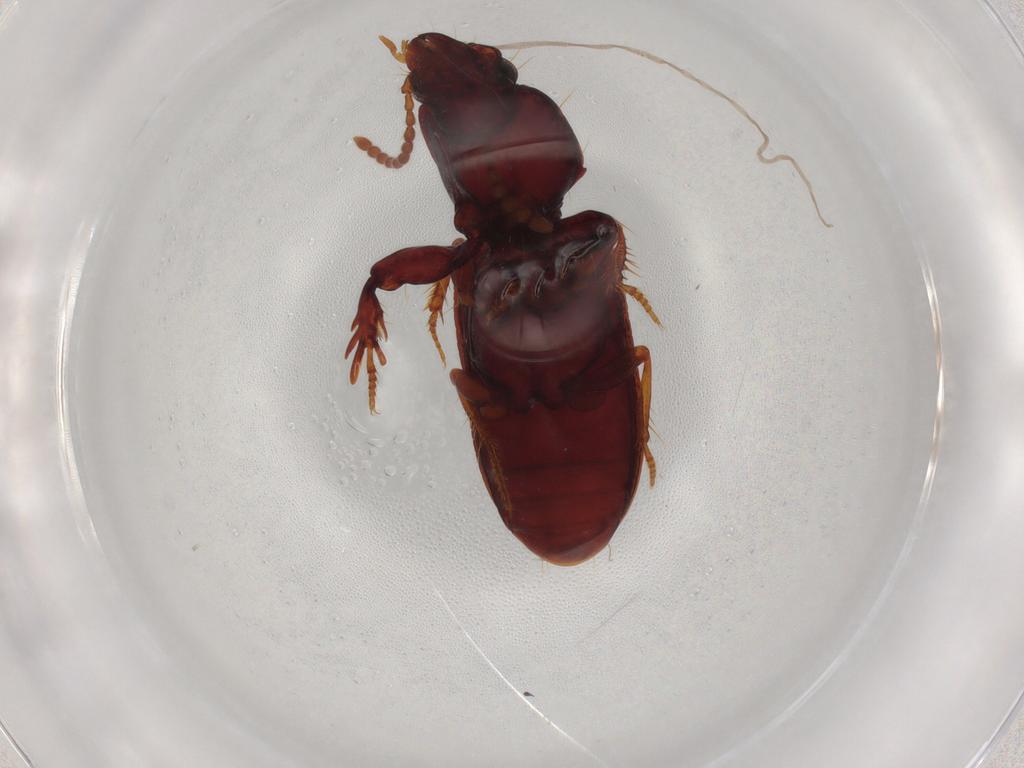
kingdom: Animalia
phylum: Arthropoda
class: Insecta
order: Coleoptera
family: Carabidae
